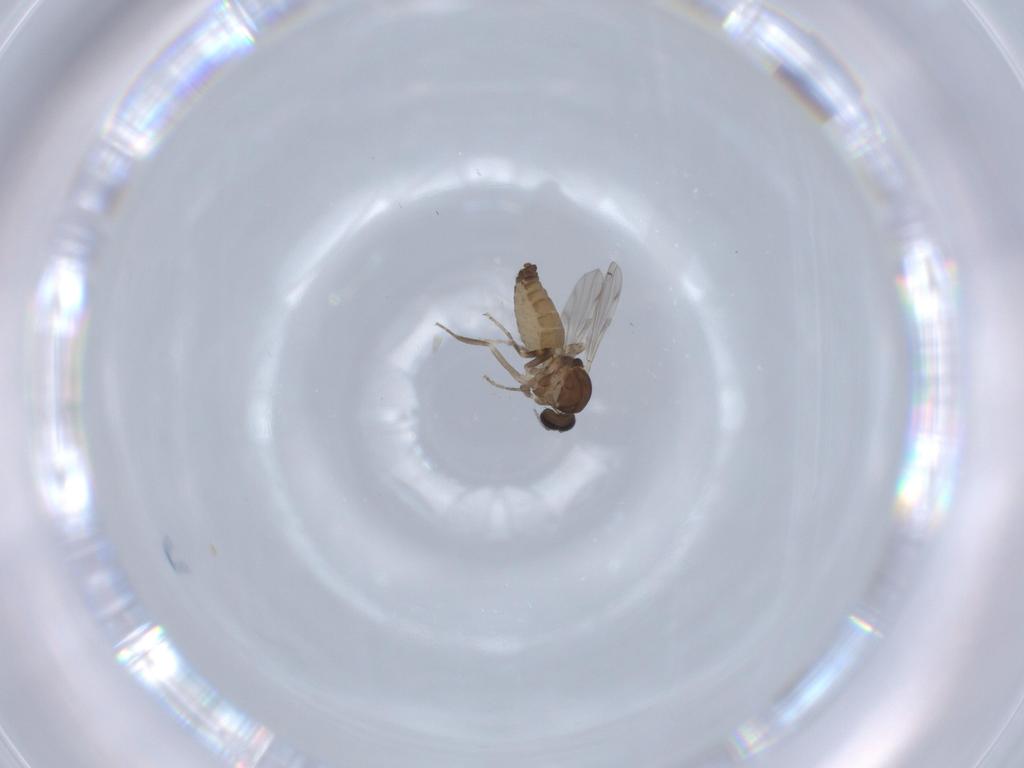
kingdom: Animalia
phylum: Arthropoda
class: Insecta
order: Diptera
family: Ceratopogonidae
